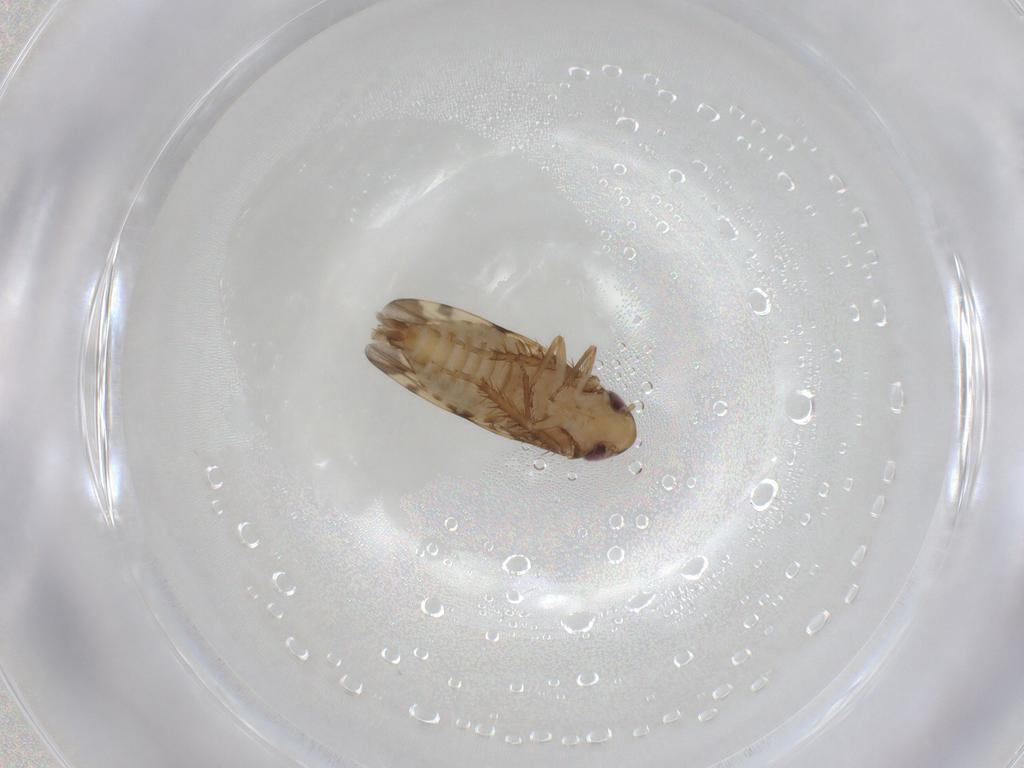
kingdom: Animalia
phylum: Arthropoda
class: Insecta
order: Hemiptera
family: Cicadellidae
